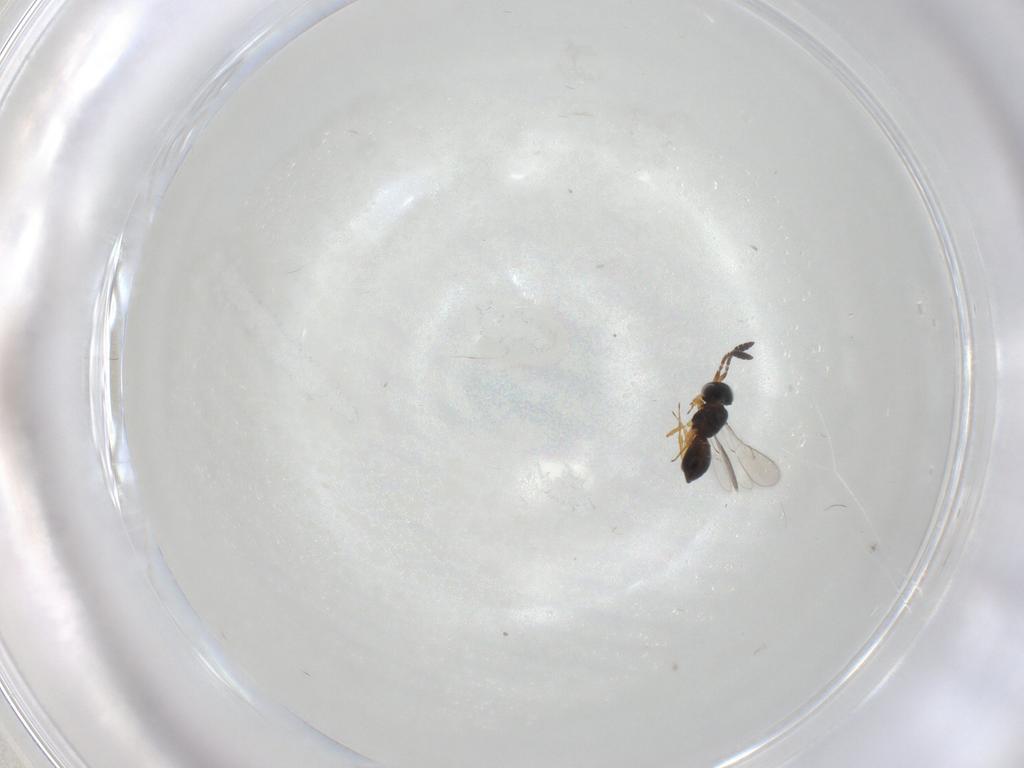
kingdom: Animalia
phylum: Arthropoda
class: Insecta
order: Hymenoptera
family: Scelionidae
